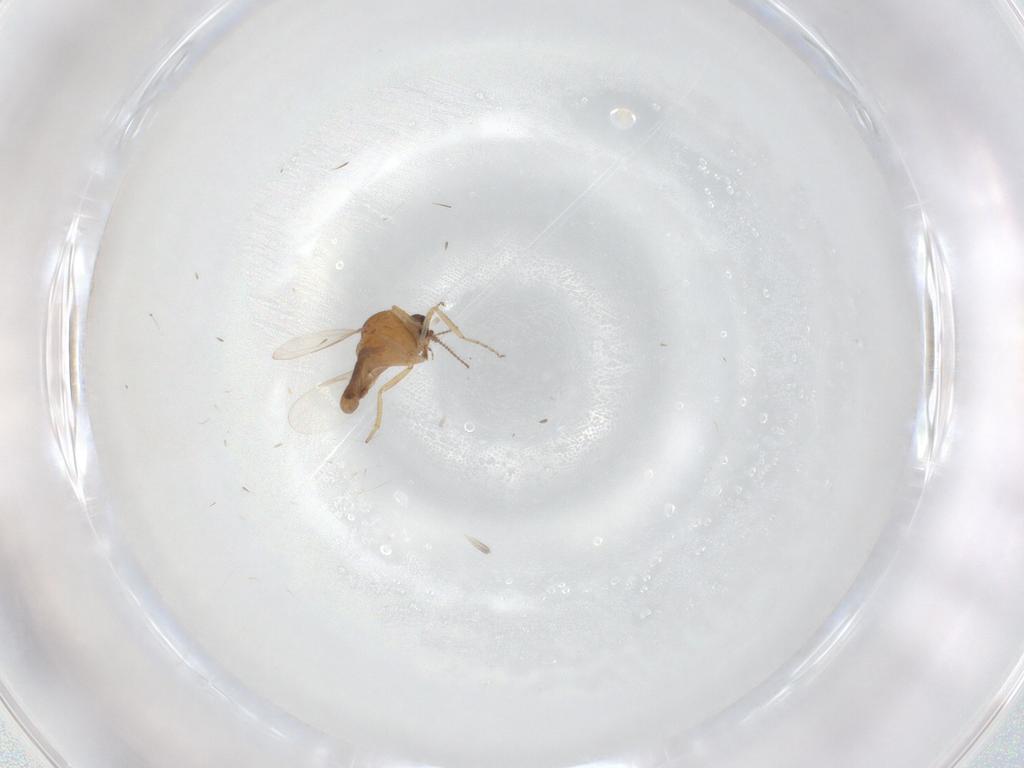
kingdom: Animalia
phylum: Arthropoda
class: Insecta
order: Diptera
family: Ceratopogonidae
